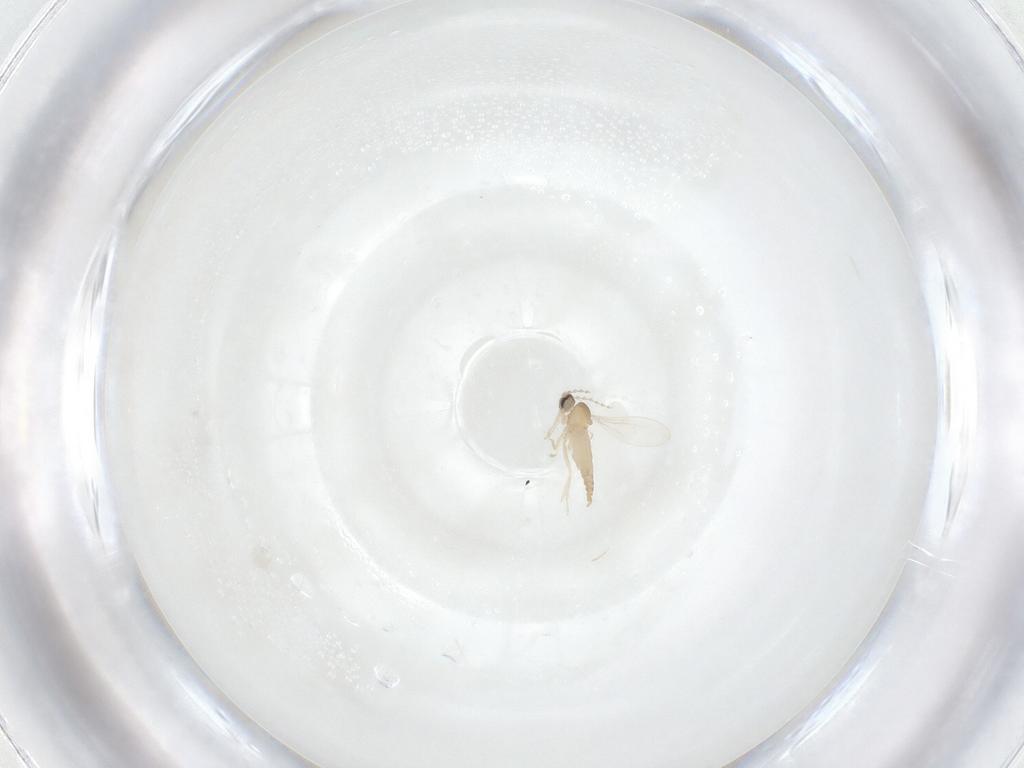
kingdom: Animalia
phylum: Arthropoda
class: Insecta
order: Diptera
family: Cecidomyiidae
